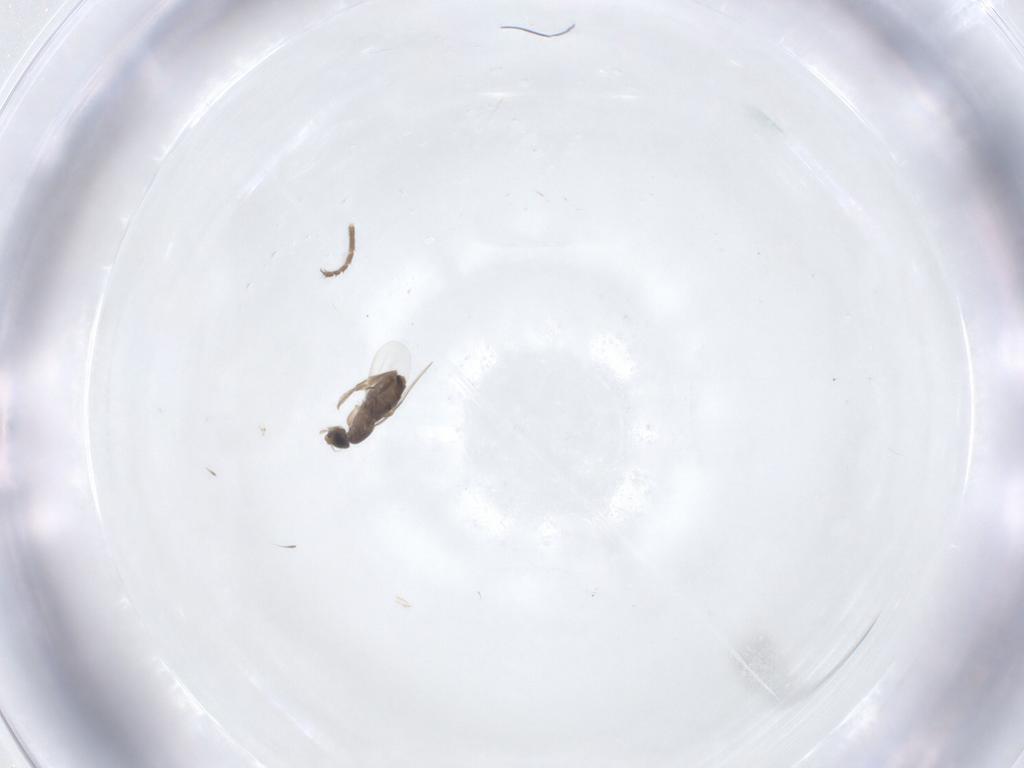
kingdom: Animalia
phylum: Arthropoda
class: Insecta
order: Diptera
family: Heleomyzidae
